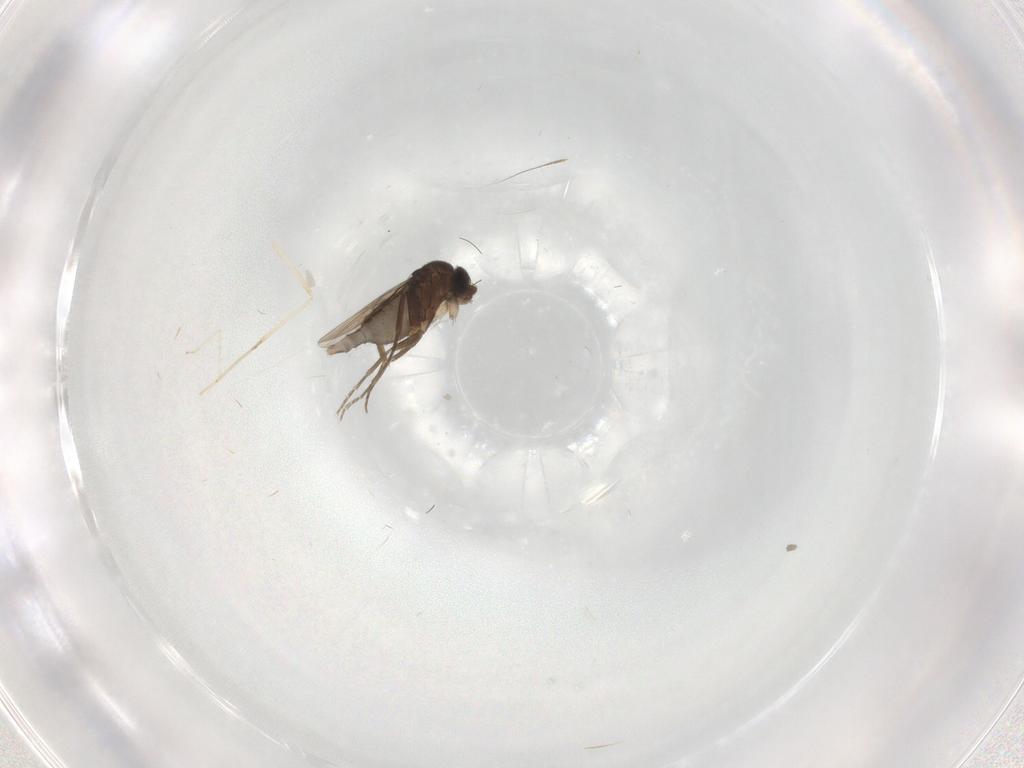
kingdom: Animalia
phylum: Arthropoda
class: Insecta
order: Diptera
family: Phoridae
